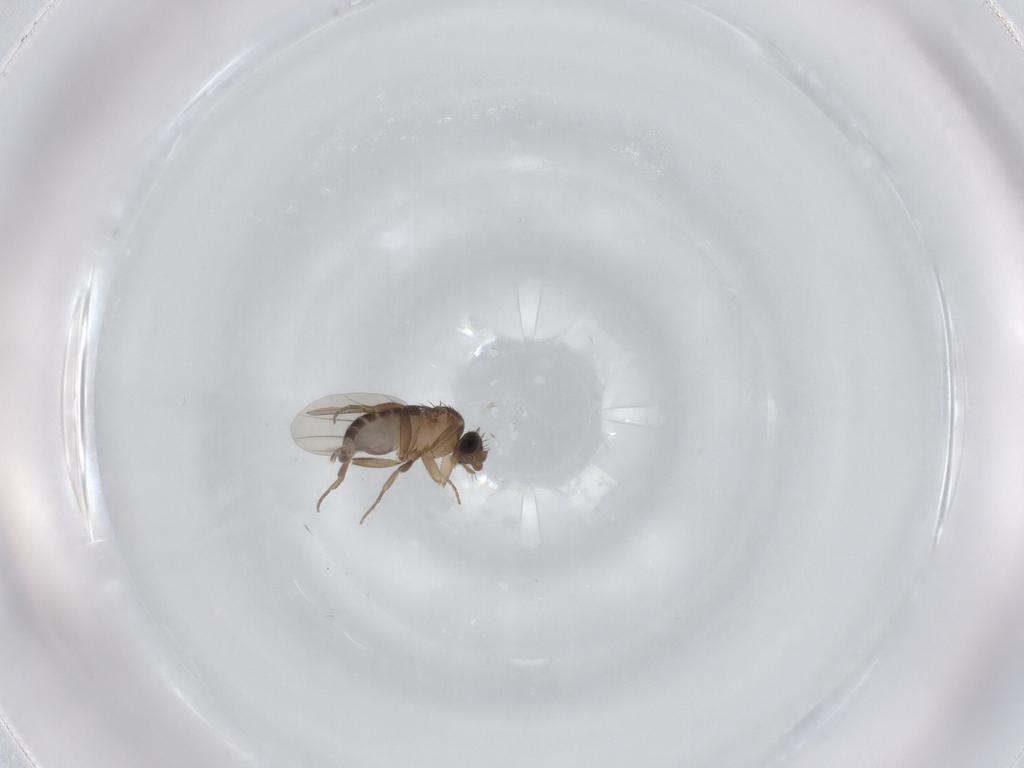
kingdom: Animalia
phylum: Arthropoda
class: Insecta
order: Diptera
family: Phoridae
